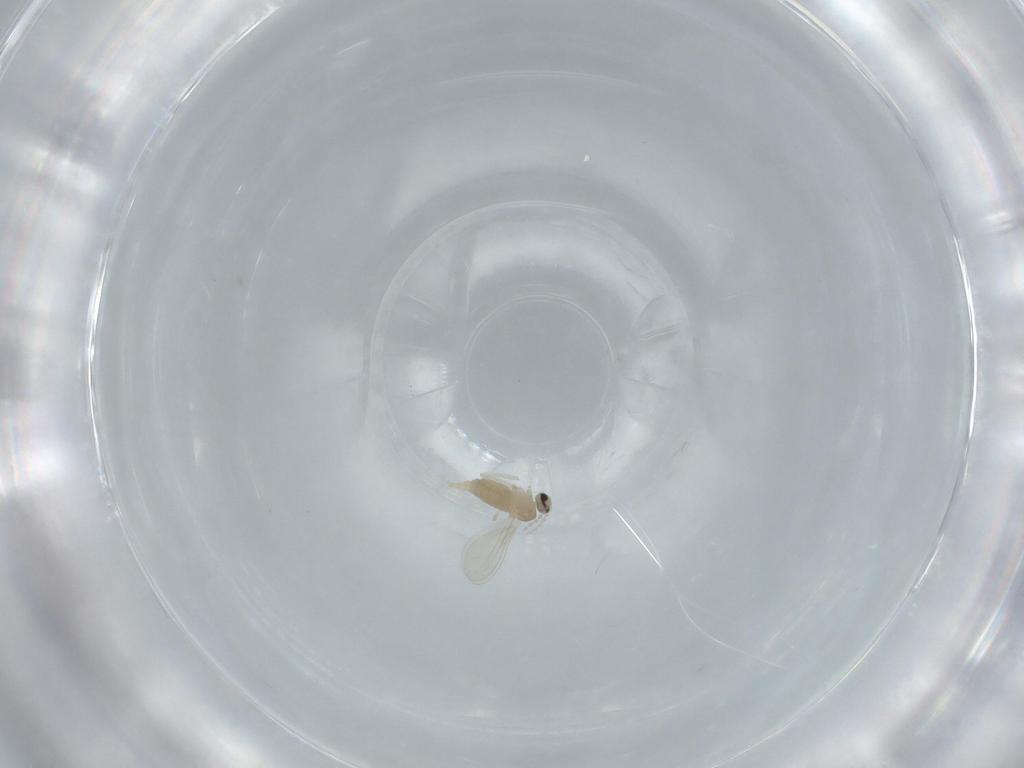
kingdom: Animalia
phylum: Arthropoda
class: Insecta
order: Diptera
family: Cecidomyiidae
